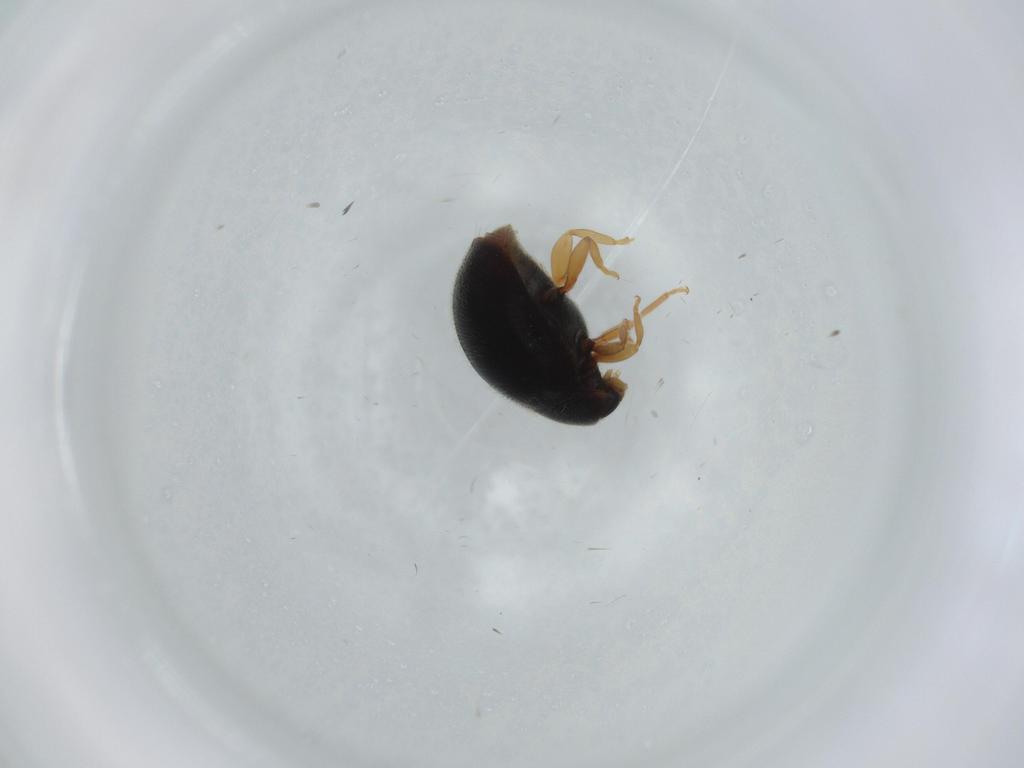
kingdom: Animalia
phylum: Arthropoda
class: Insecta
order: Coleoptera
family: Coccinellidae
